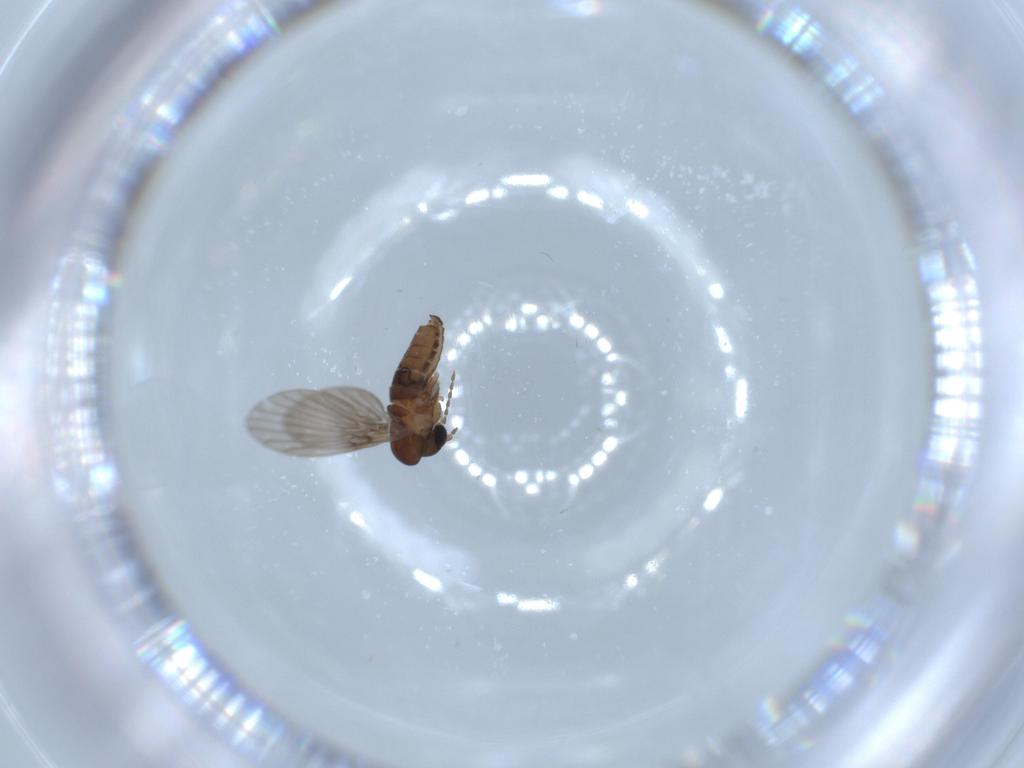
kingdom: Animalia
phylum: Arthropoda
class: Insecta
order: Diptera
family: Psychodidae
